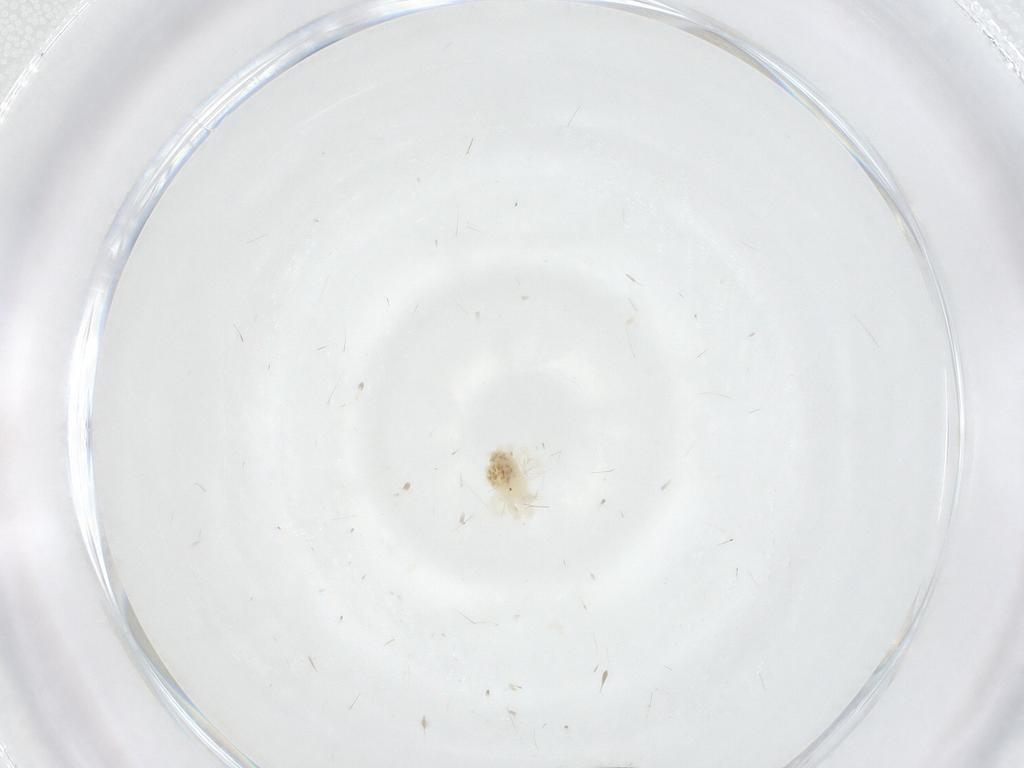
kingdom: Animalia
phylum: Arthropoda
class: Arachnida
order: Trombidiformes
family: Anystidae
